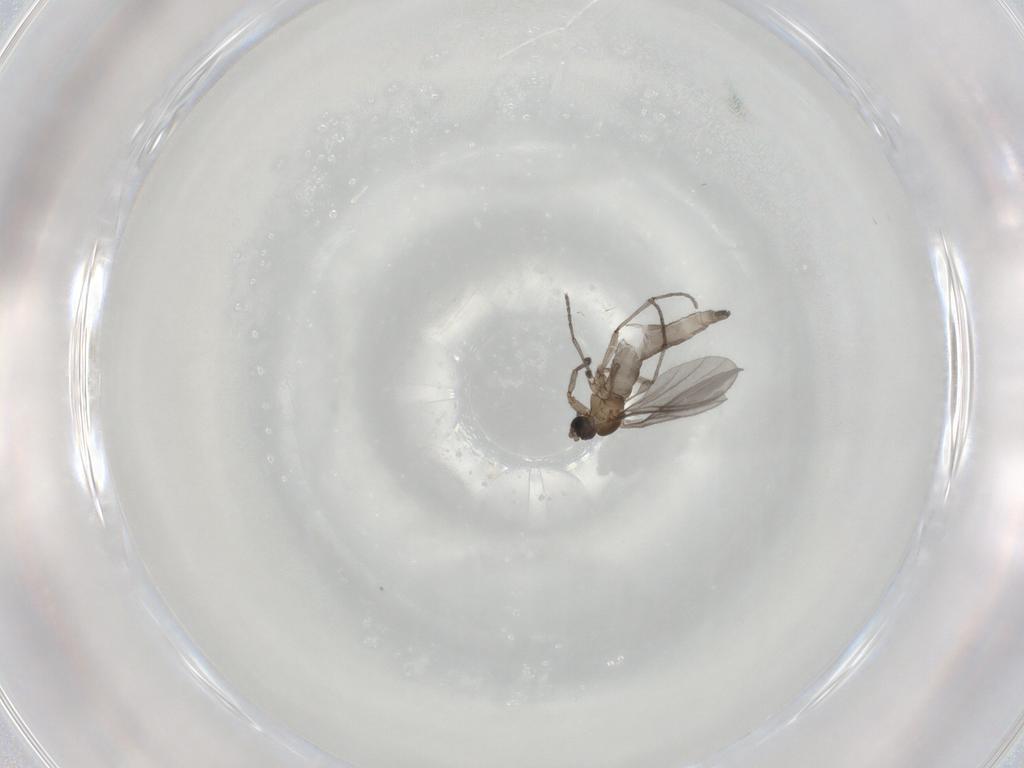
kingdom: Animalia
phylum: Arthropoda
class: Insecta
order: Diptera
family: Sciaridae
